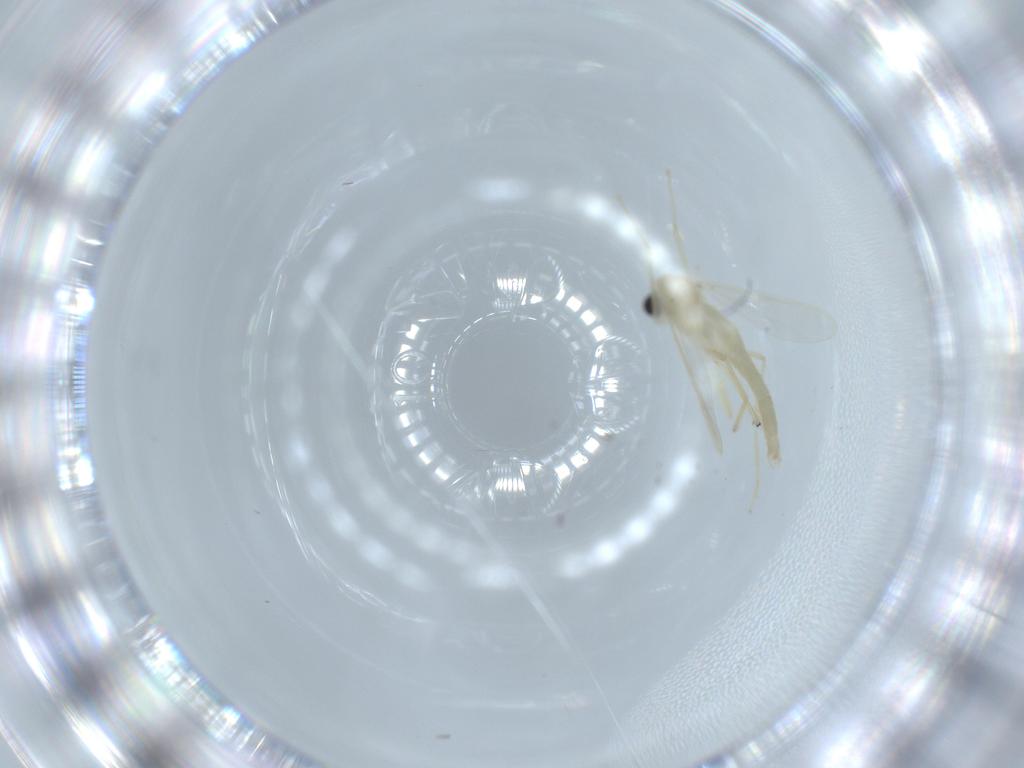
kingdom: Animalia
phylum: Arthropoda
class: Insecta
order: Diptera
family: Chironomidae
